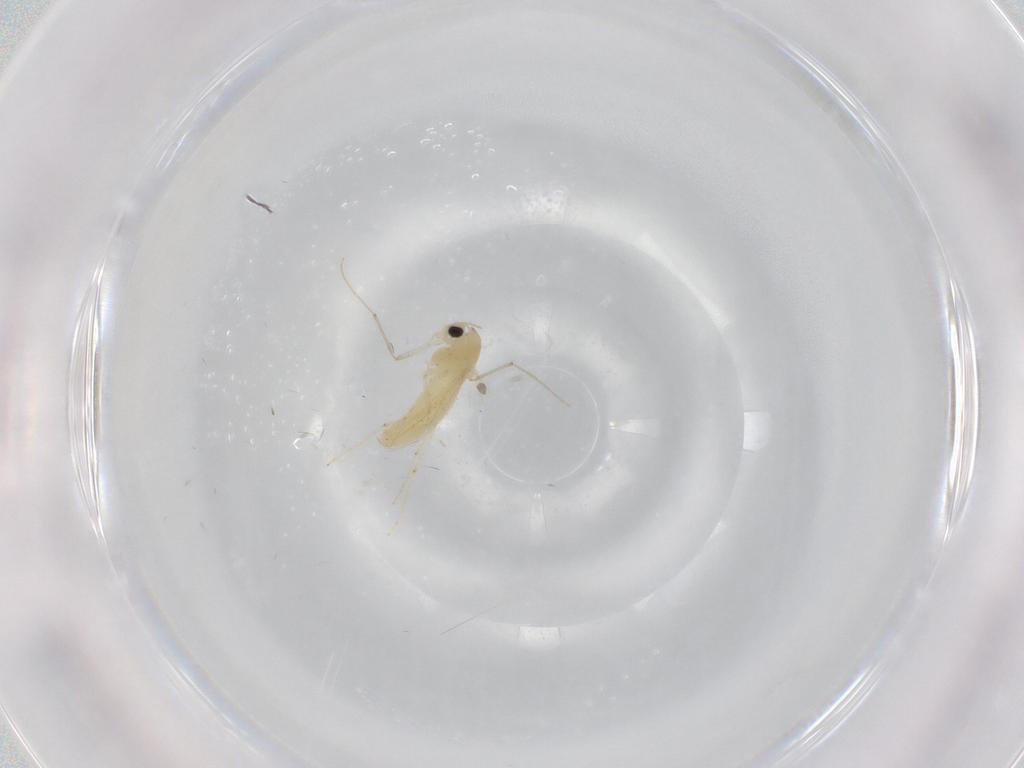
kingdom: Animalia
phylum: Arthropoda
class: Insecta
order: Diptera
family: Chironomidae
